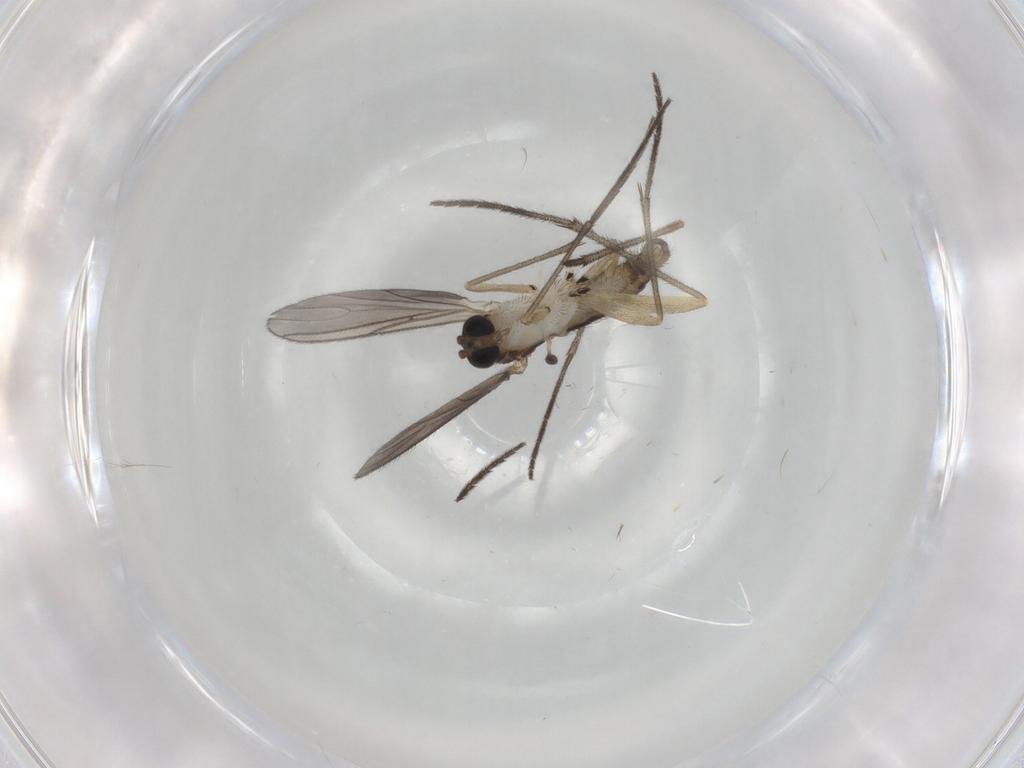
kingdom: Animalia
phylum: Arthropoda
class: Insecta
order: Diptera
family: Sciaridae
